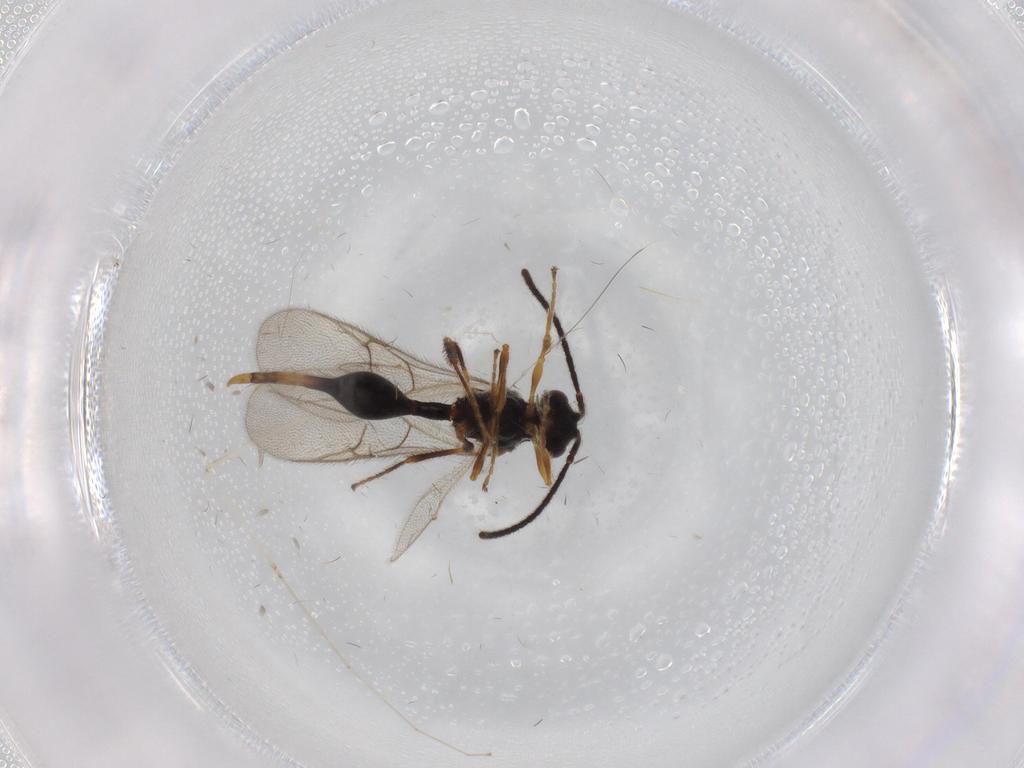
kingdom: Animalia
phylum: Arthropoda
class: Insecta
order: Hymenoptera
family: Diapriidae
